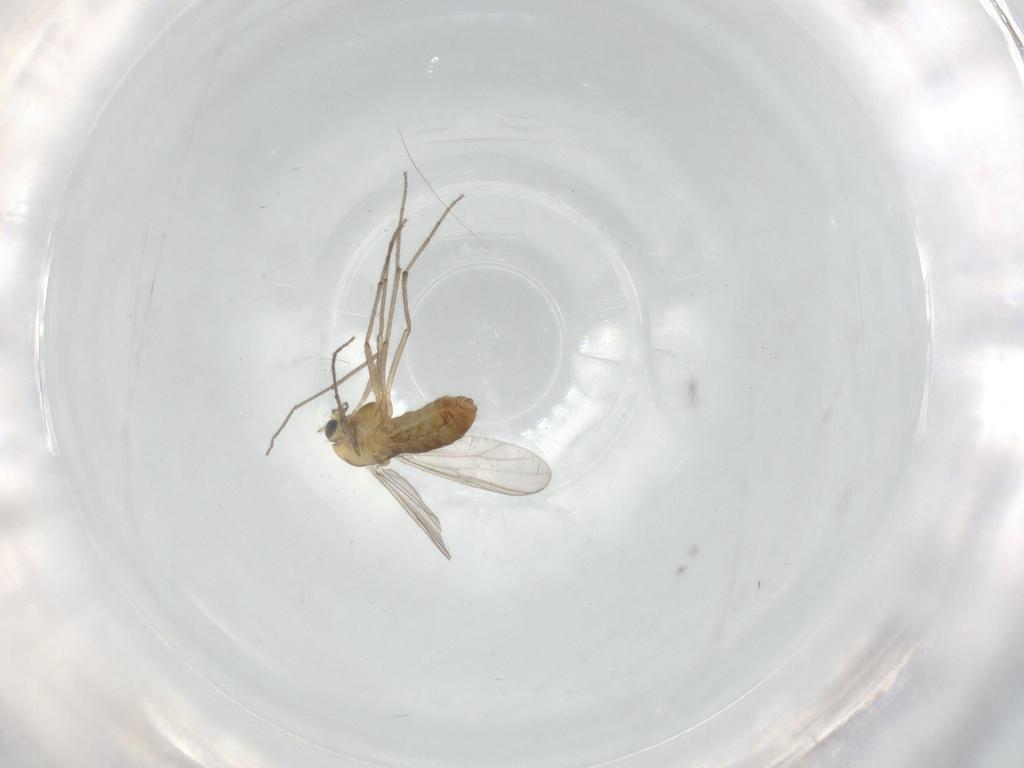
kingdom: Animalia
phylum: Arthropoda
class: Insecta
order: Diptera
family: Chironomidae
